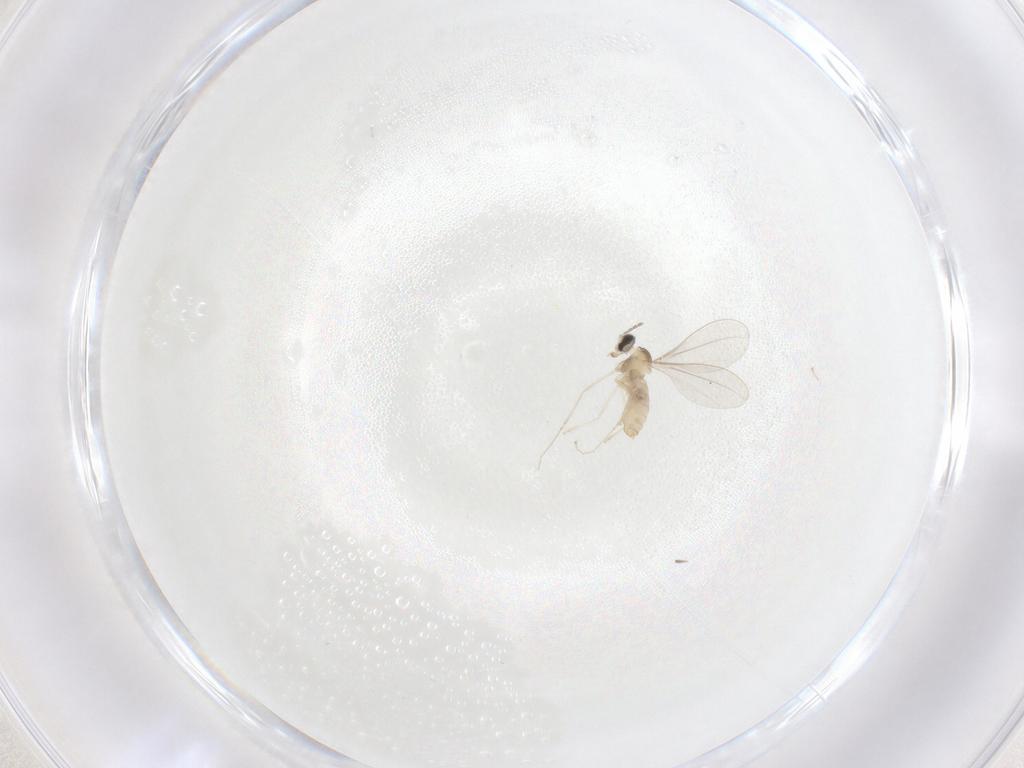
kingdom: Animalia
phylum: Arthropoda
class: Insecta
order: Diptera
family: Cecidomyiidae
